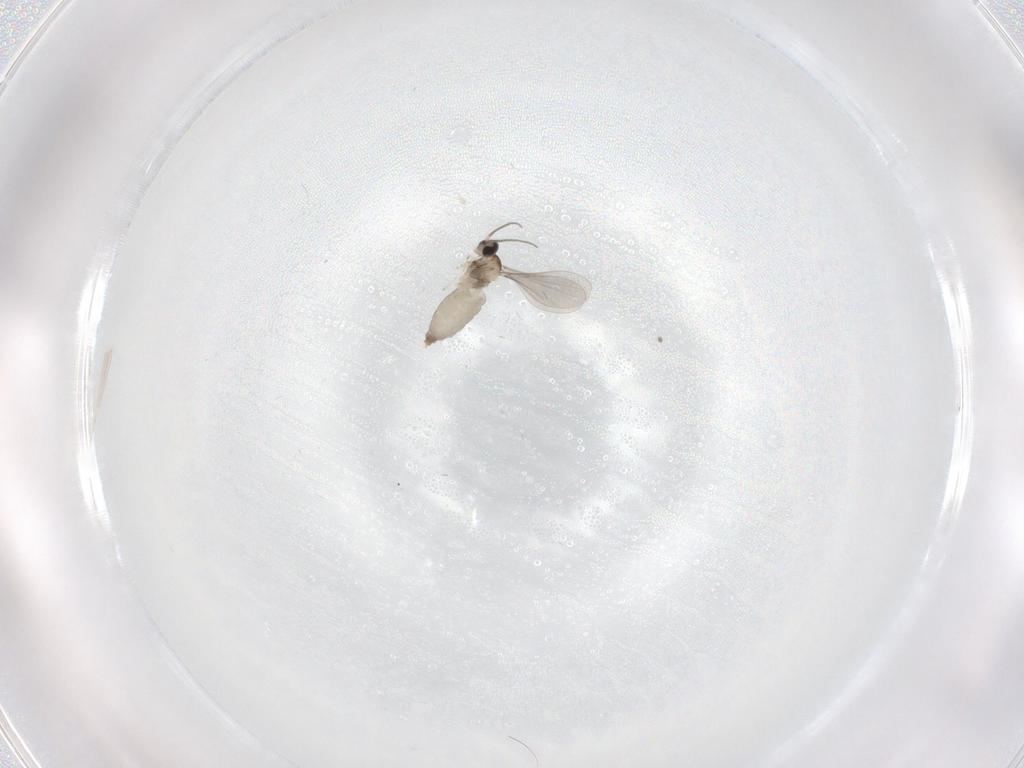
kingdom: Animalia
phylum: Arthropoda
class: Insecta
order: Diptera
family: Cecidomyiidae
